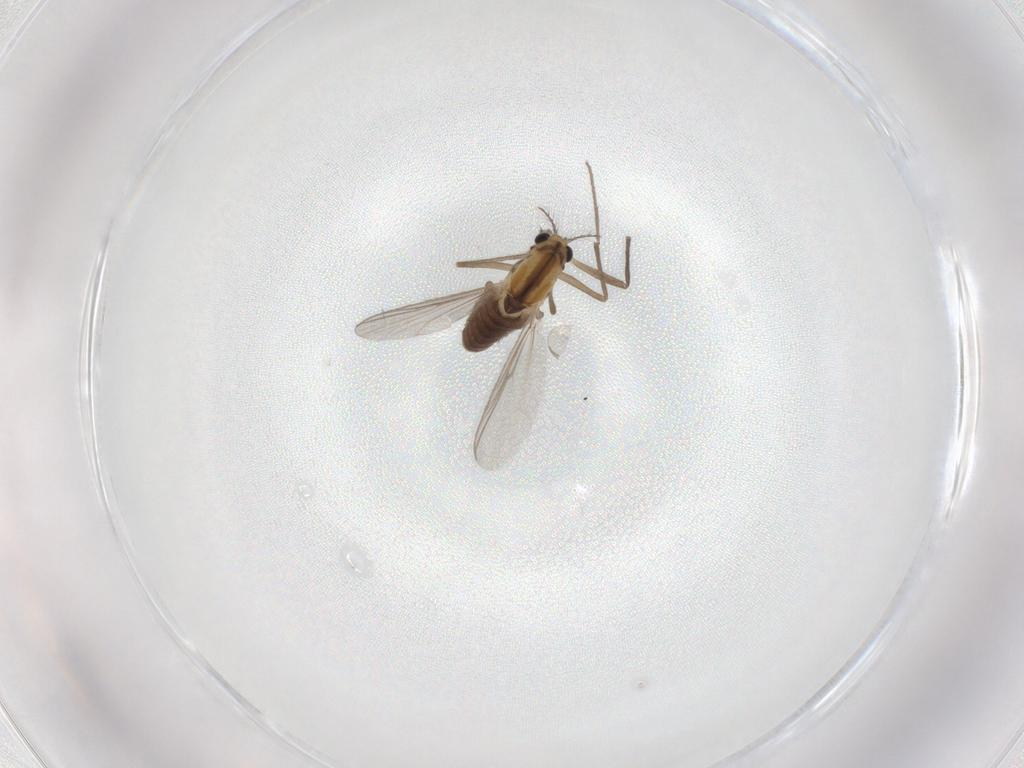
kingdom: Animalia
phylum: Arthropoda
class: Insecta
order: Diptera
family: Chironomidae
